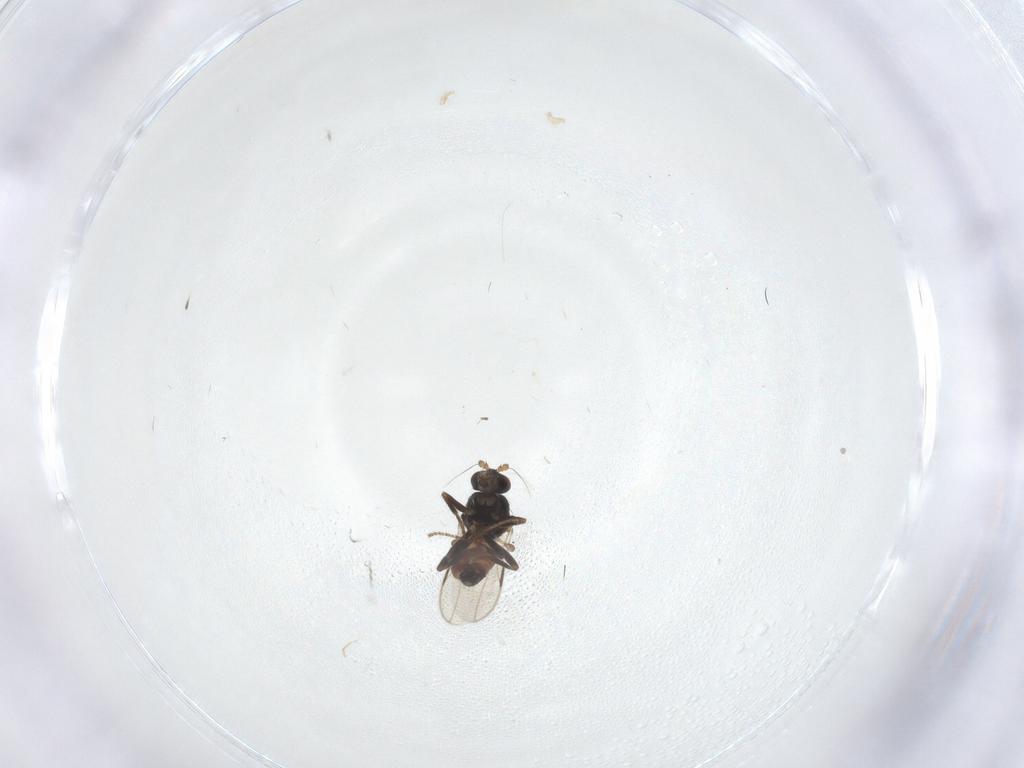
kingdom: Animalia
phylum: Arthropoda
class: Insecta
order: Diptera
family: Sphaeroceridae
